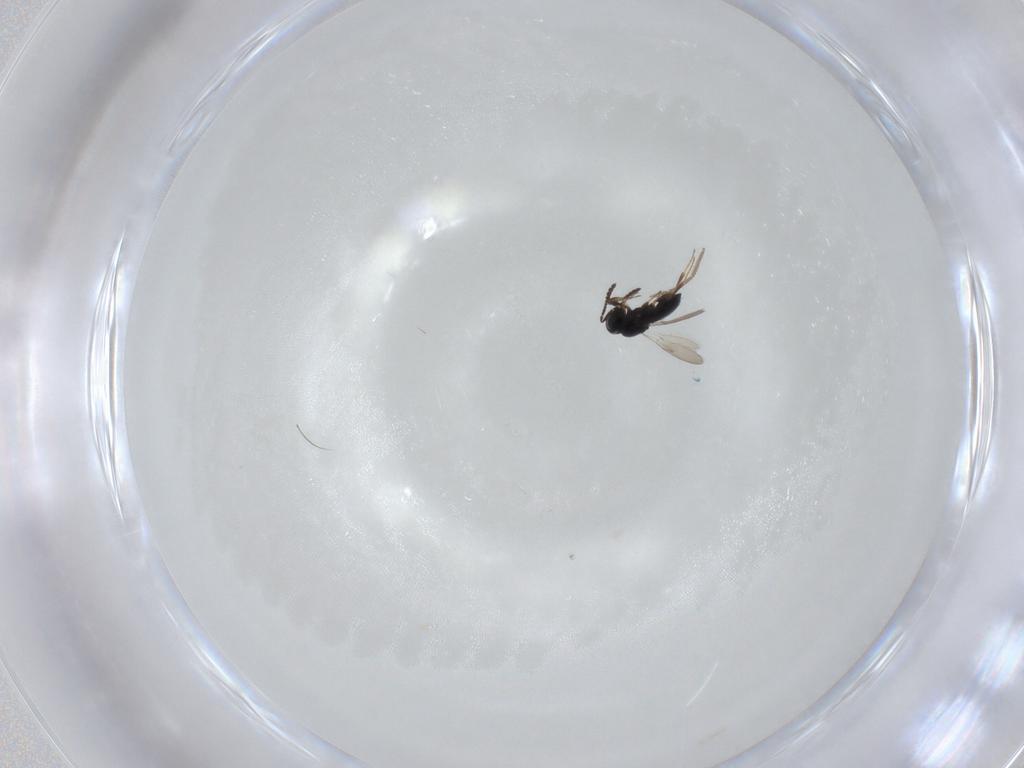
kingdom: Animalia
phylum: Arthropoda
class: Insecta
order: Hymenoptera
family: Scelionidae
